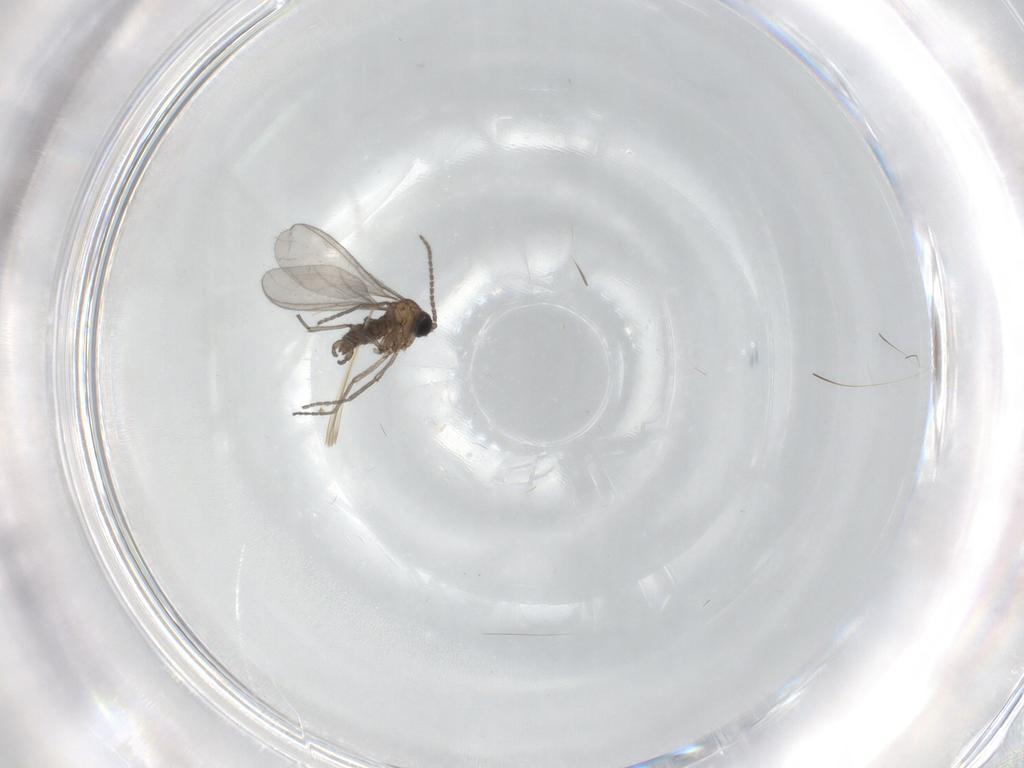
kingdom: Animalia
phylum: Arthropoda
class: Insecta
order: Diptera
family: Sciaridae
